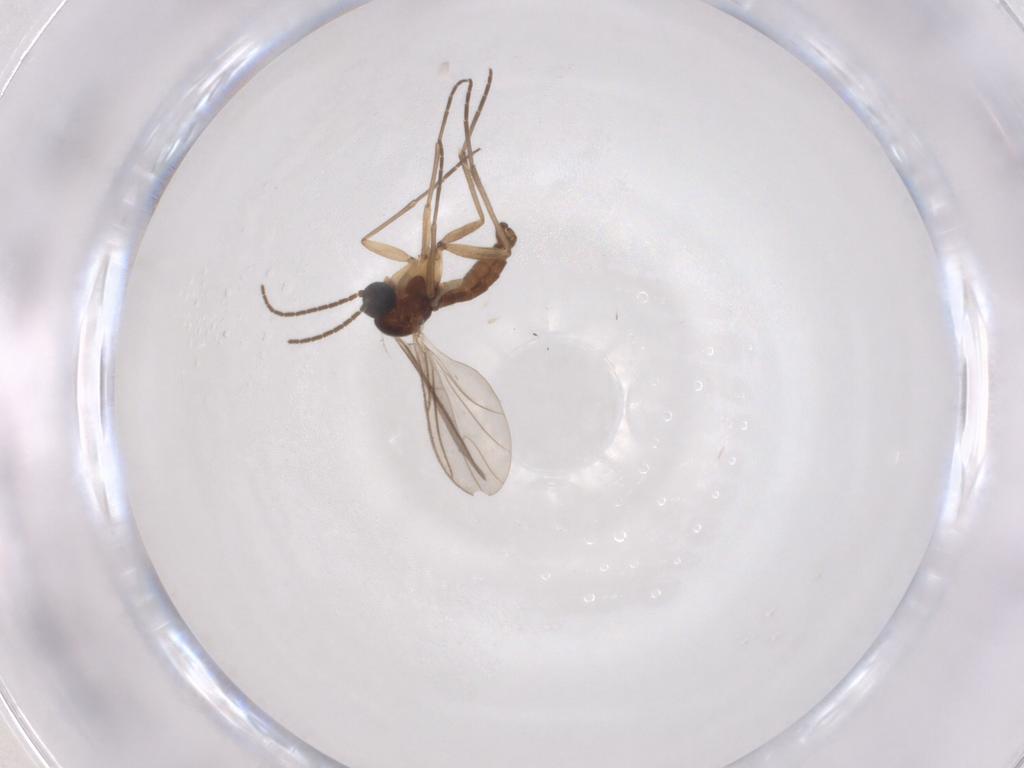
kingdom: Animalia
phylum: Arthropoda
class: Insecta
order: Diptera
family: Sciaridae
